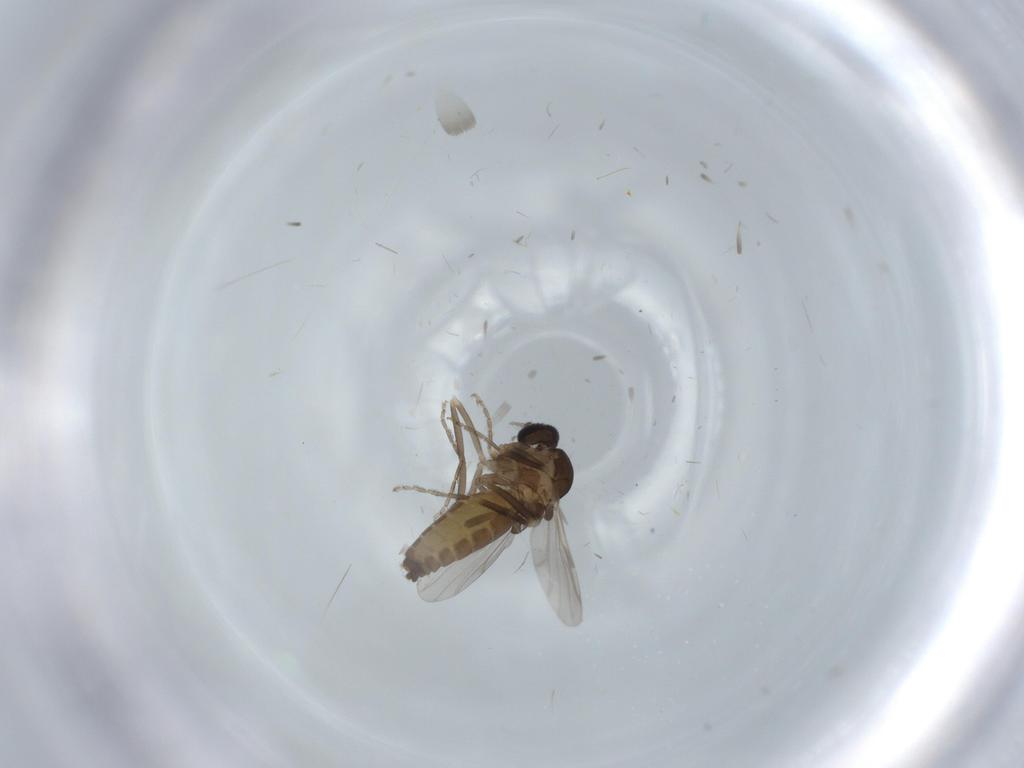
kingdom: Animalia
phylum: Arthropoda
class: Insecta
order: Diptera
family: Ceratopogonidae
